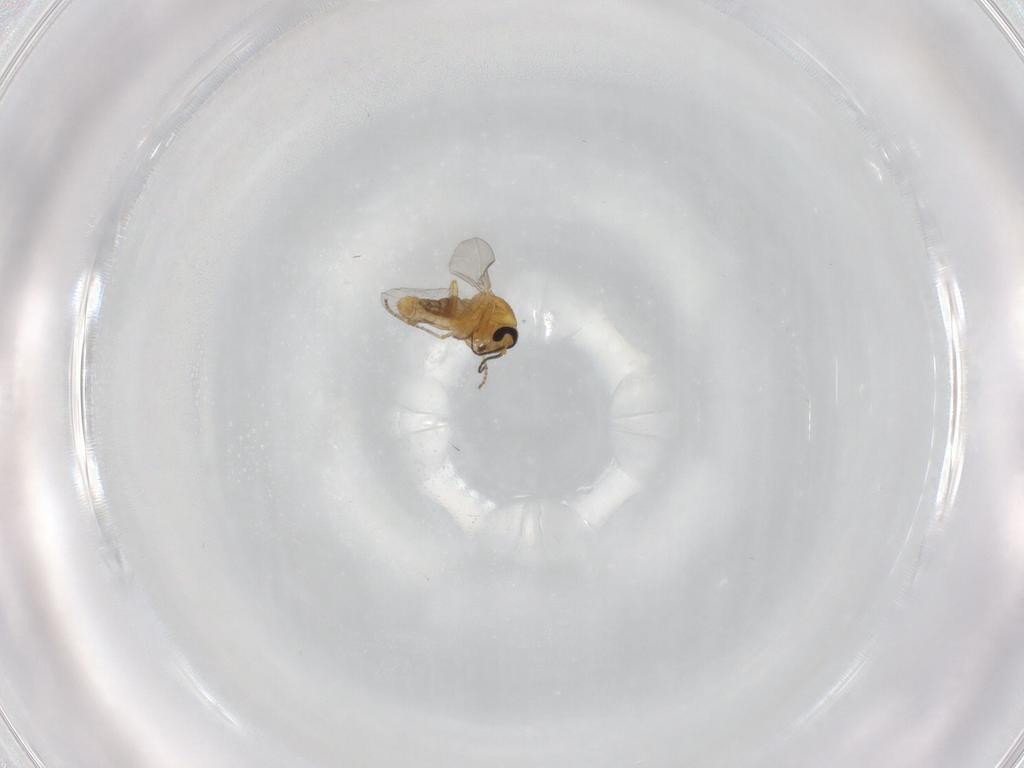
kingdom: Animalia
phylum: Arthropoda
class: Insecta
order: Diptera
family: Ceratopogonidae
